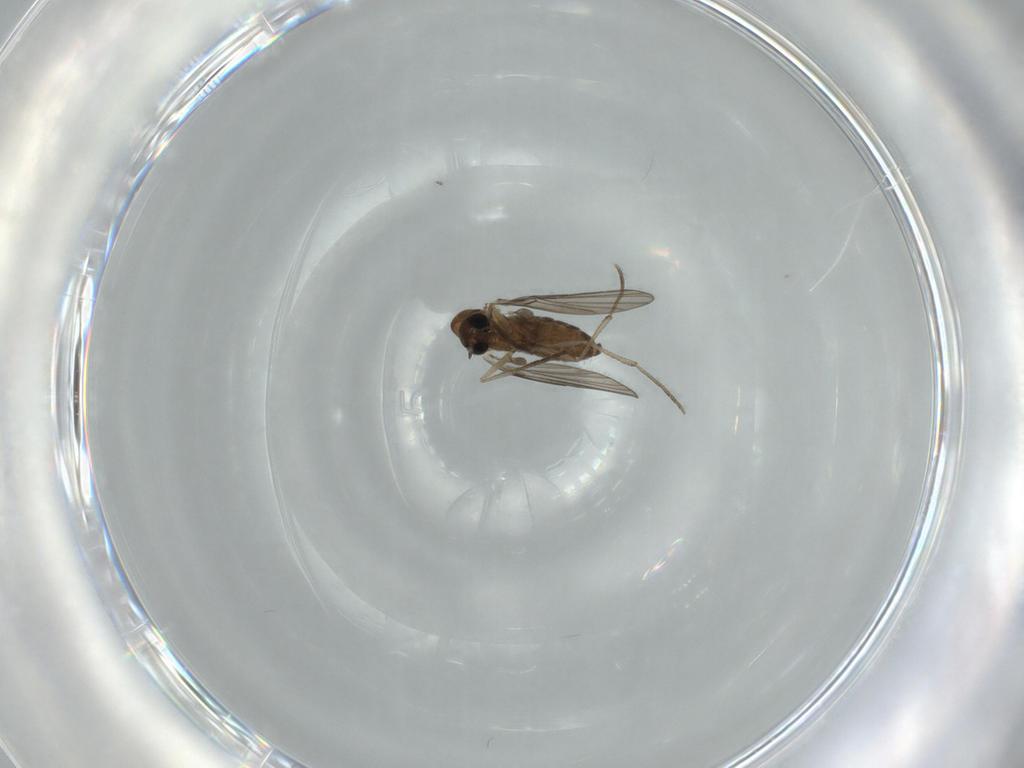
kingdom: Animalia
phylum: Arthropoda
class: Insecta
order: Diptera
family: Psychodidae
